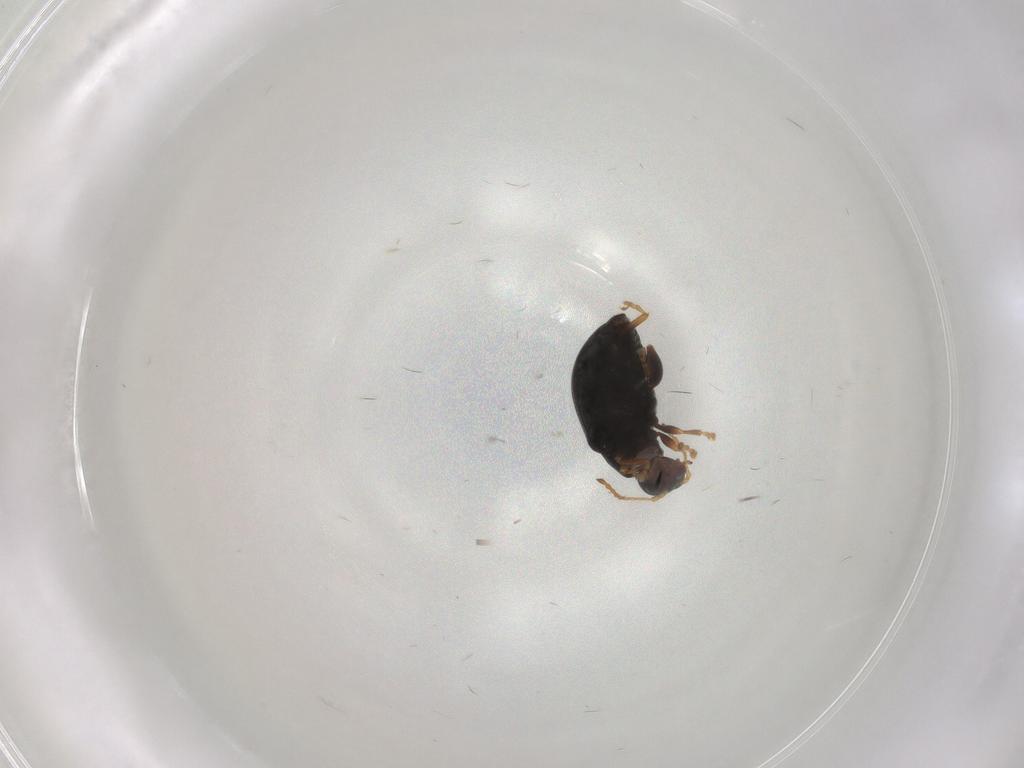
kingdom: Animalia
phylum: Arthropoda
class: Insecta
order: Coleoptera
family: Chrysomelidae
